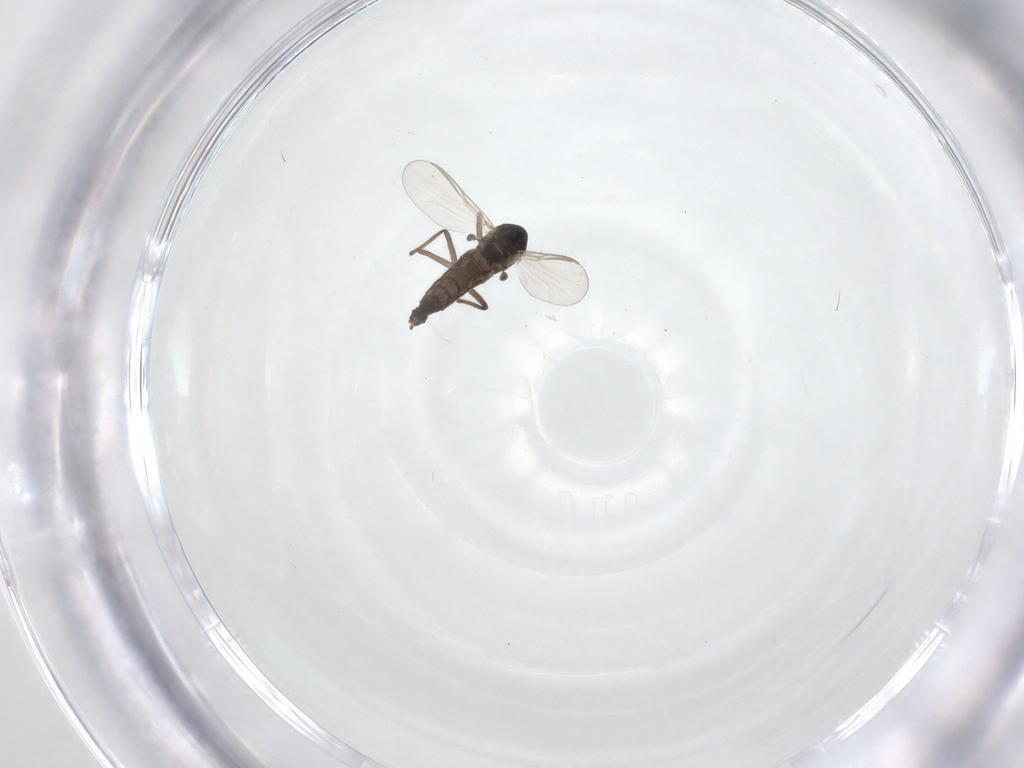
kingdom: Animalia
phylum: Arthropoda
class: Insecta
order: Diptera
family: Chironomidae
